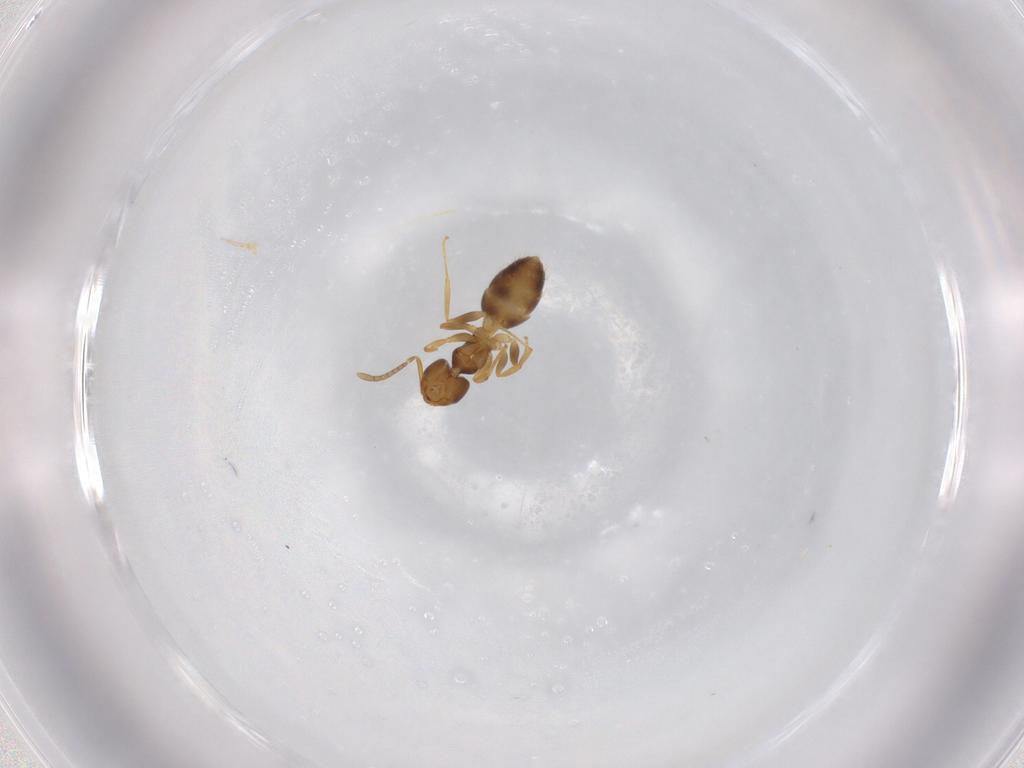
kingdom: Animalia
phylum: Arthropoda
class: Insecta
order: Hymenoptera
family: Formicidae
